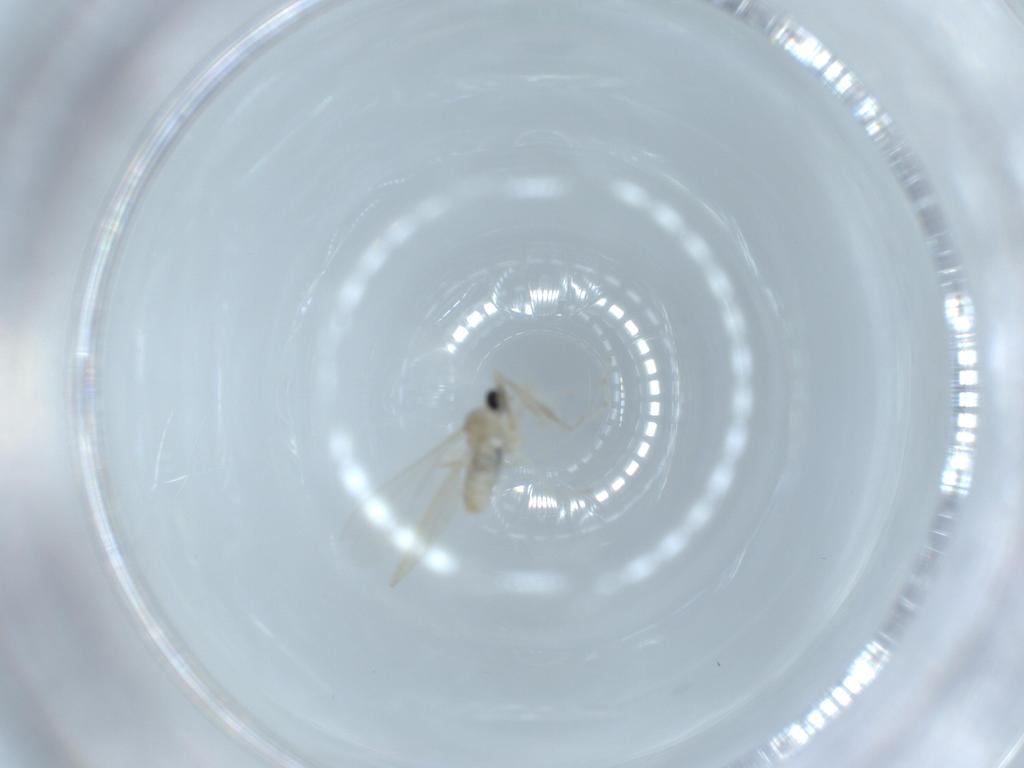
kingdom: Animalia
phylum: Arthropoda
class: Insecta
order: Diptera
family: Cecidomyiidae
